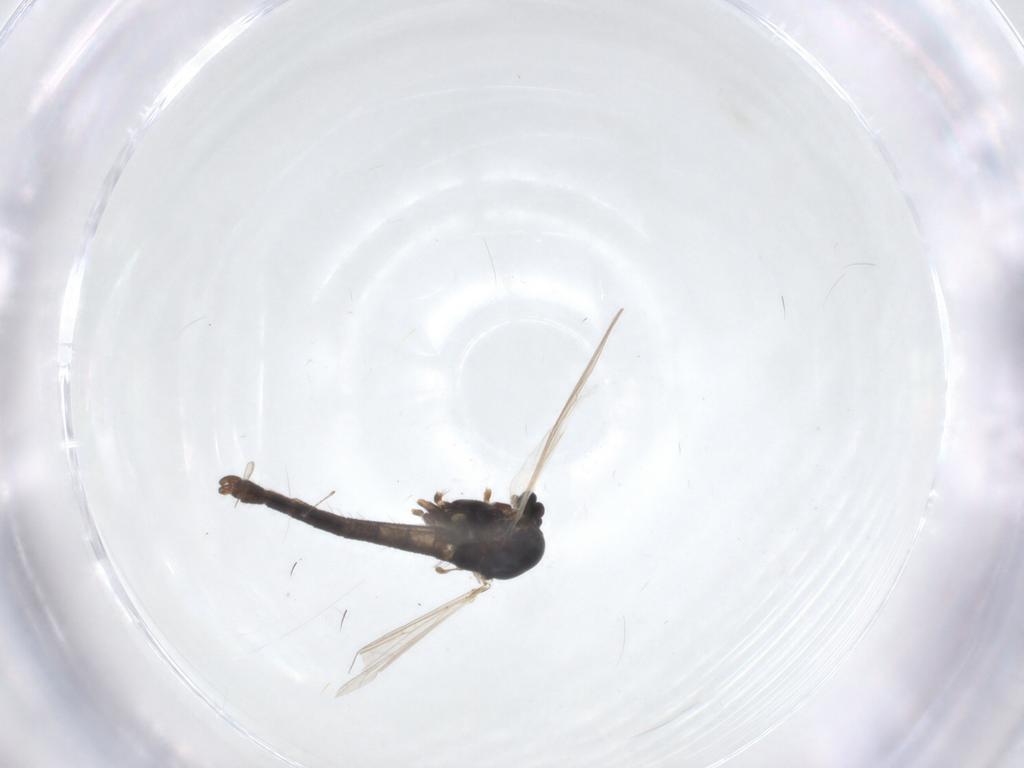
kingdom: Animalia
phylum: Arthropoda
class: Insecta
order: Diptera
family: Chironomidae
